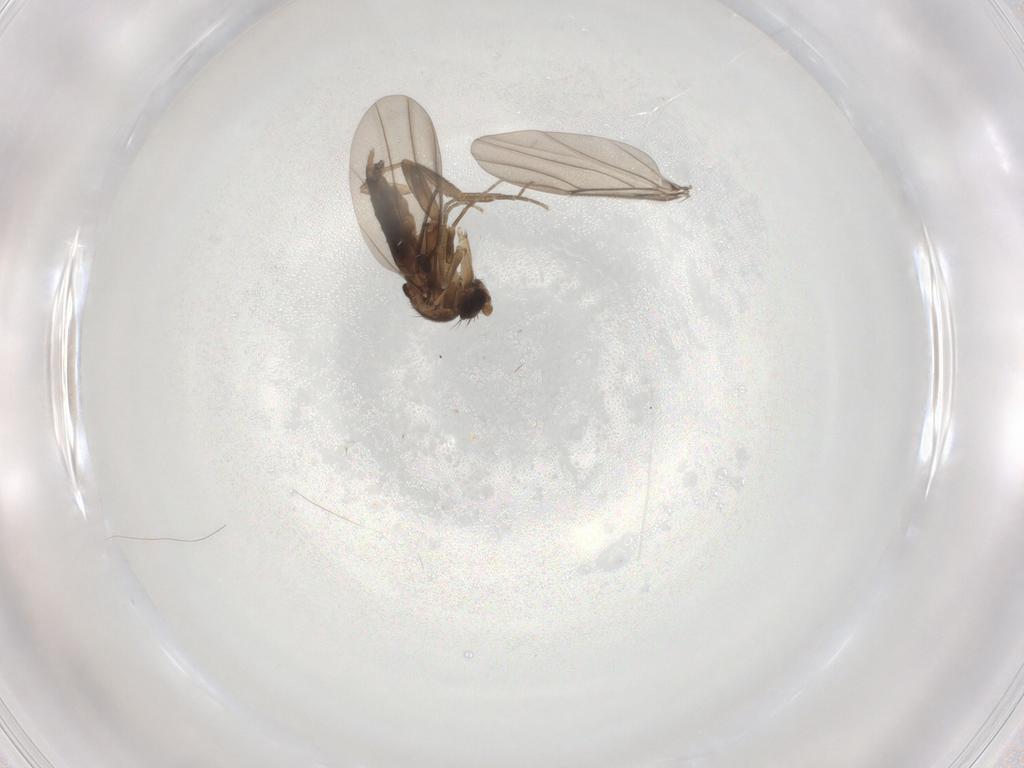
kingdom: Animalia
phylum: Arthropoda
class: Insecta
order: Diptera
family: Phoridae
